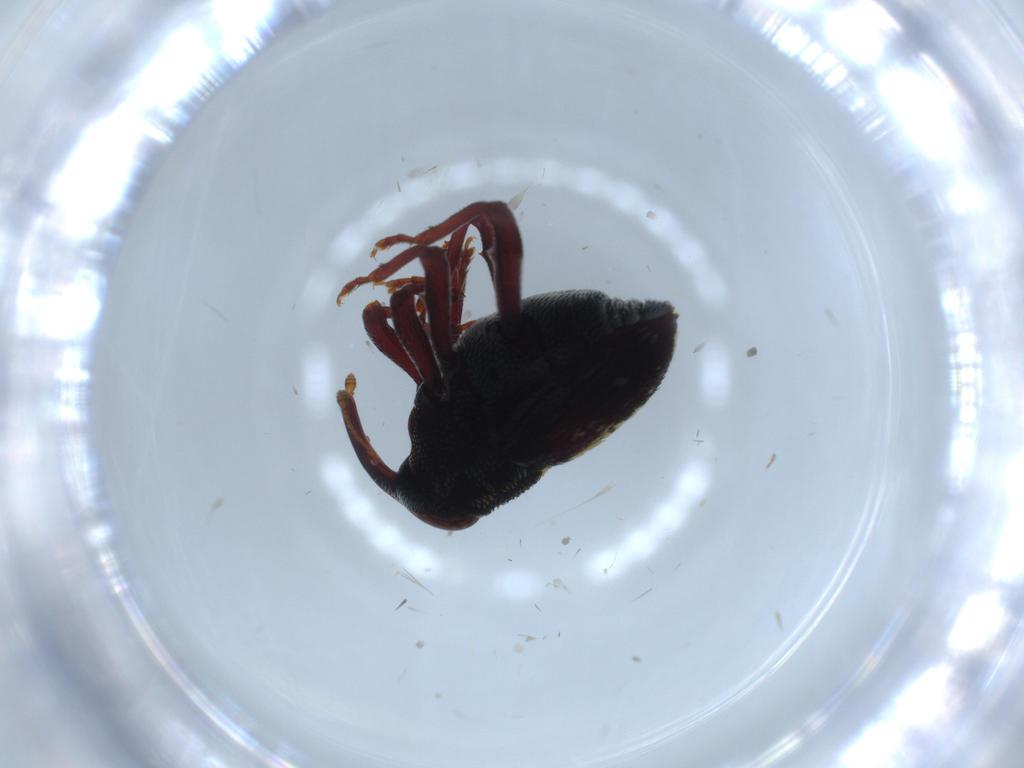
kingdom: Animalia
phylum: Arthropoda
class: Insecta
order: Coleoptera
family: Curculionidae
